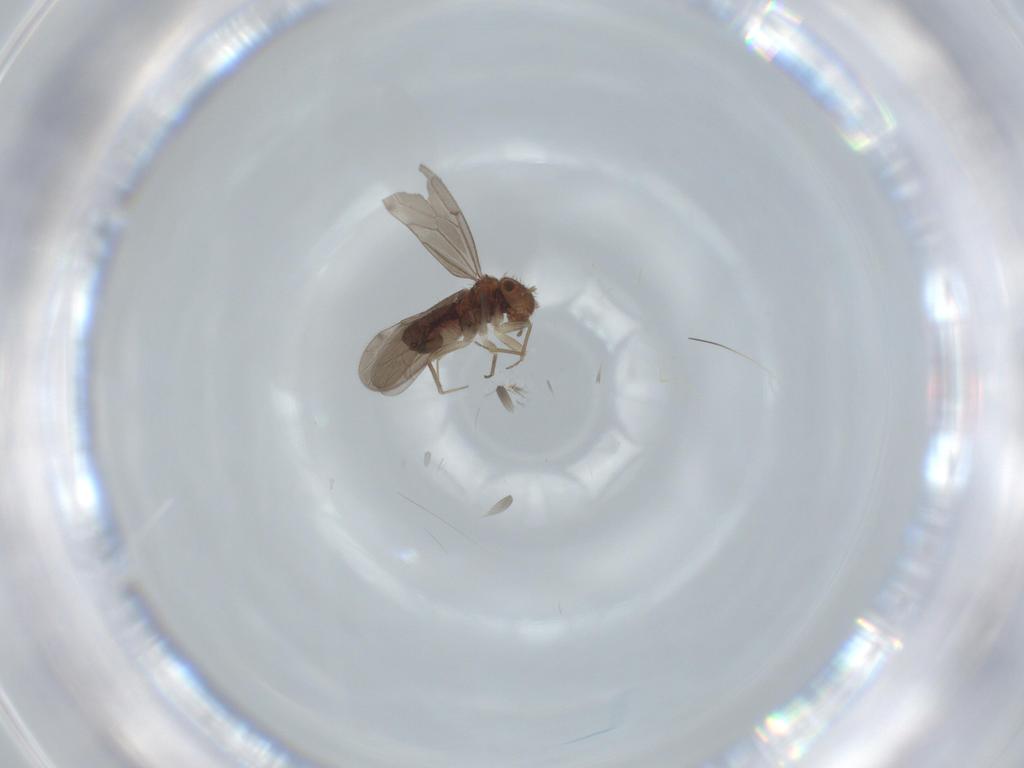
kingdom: Animalia
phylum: Arthropoda
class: Insecta
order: Psocodea
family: Ectopsocidae
